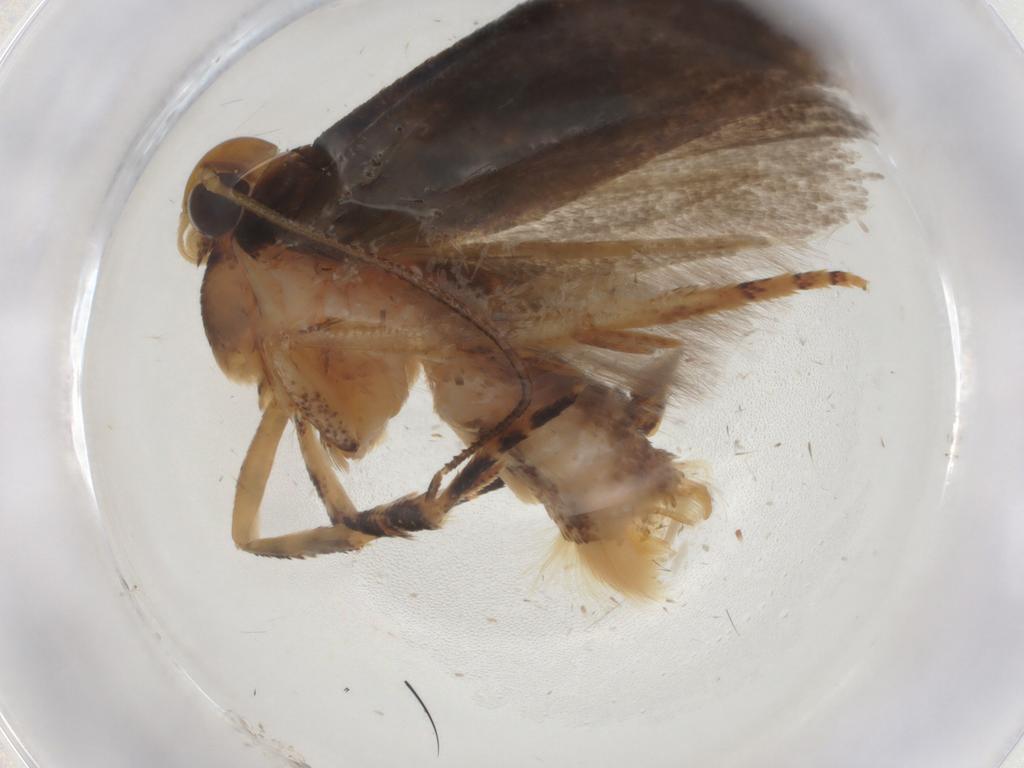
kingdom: Animalia
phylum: Arthropoda
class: Insecta
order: Lepidoptera
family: Gelechiidae
